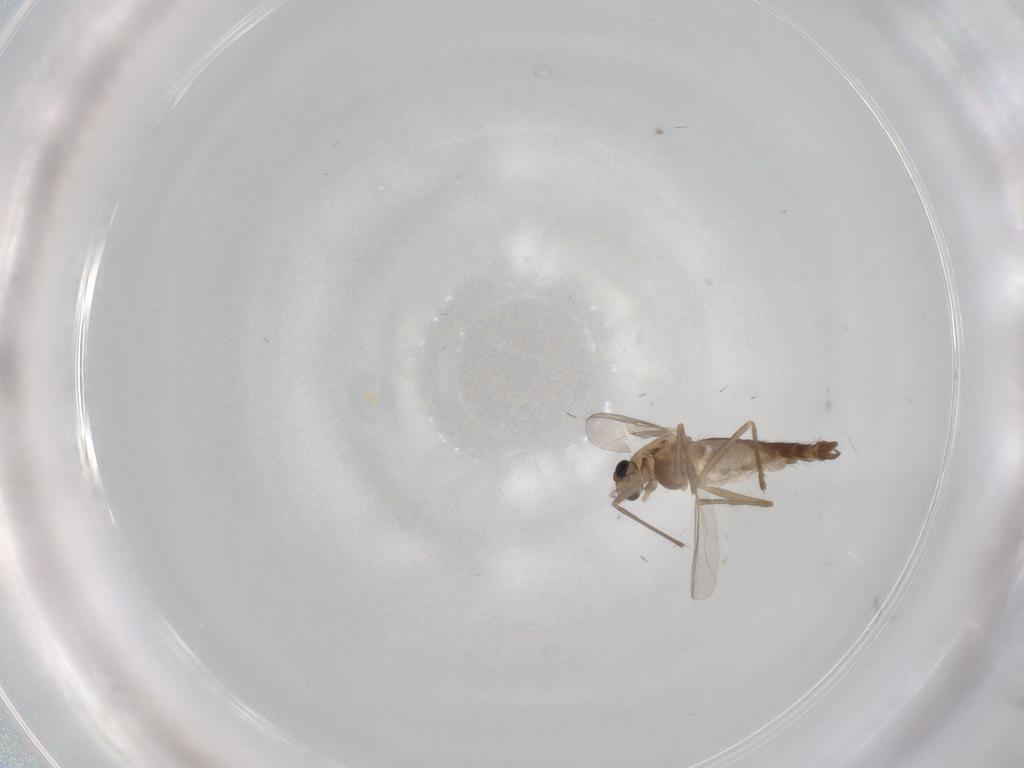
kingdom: Animalia
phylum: Arthropoda
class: Insecta
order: Diptera
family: Chironomidae
